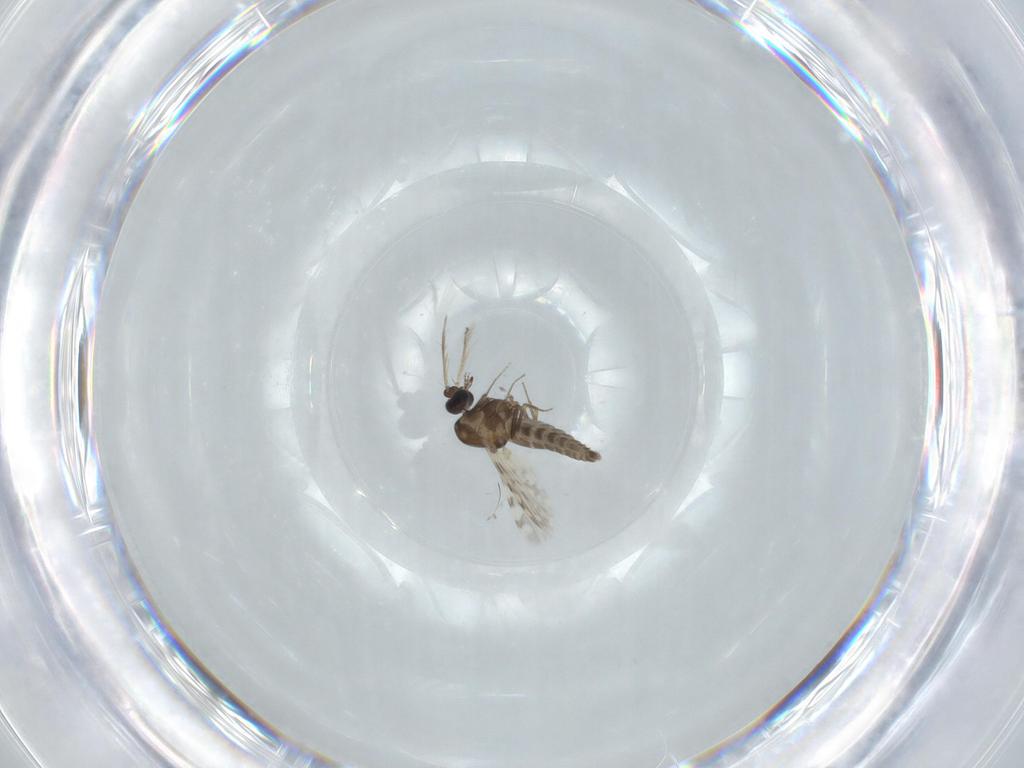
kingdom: Animalia
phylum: Arthropoda
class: Insecta
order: Diptera
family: Ceratopogonidae
